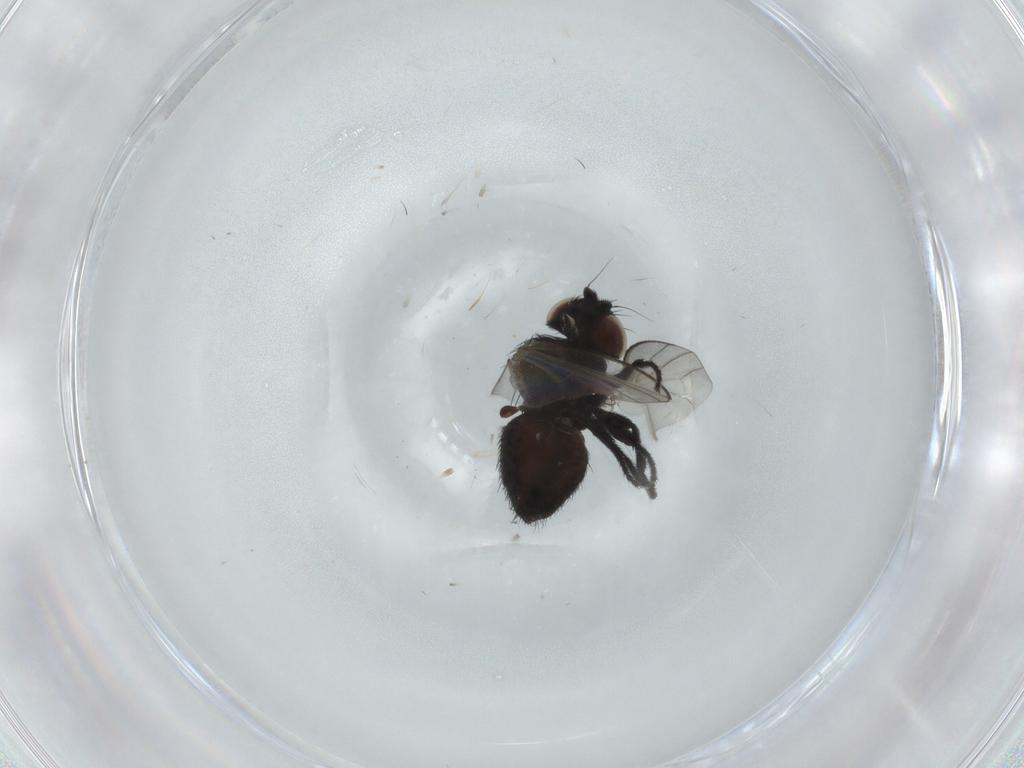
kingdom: Animalia
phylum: Arthropoda
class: Insecta
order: Diptera
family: Milichiidae
